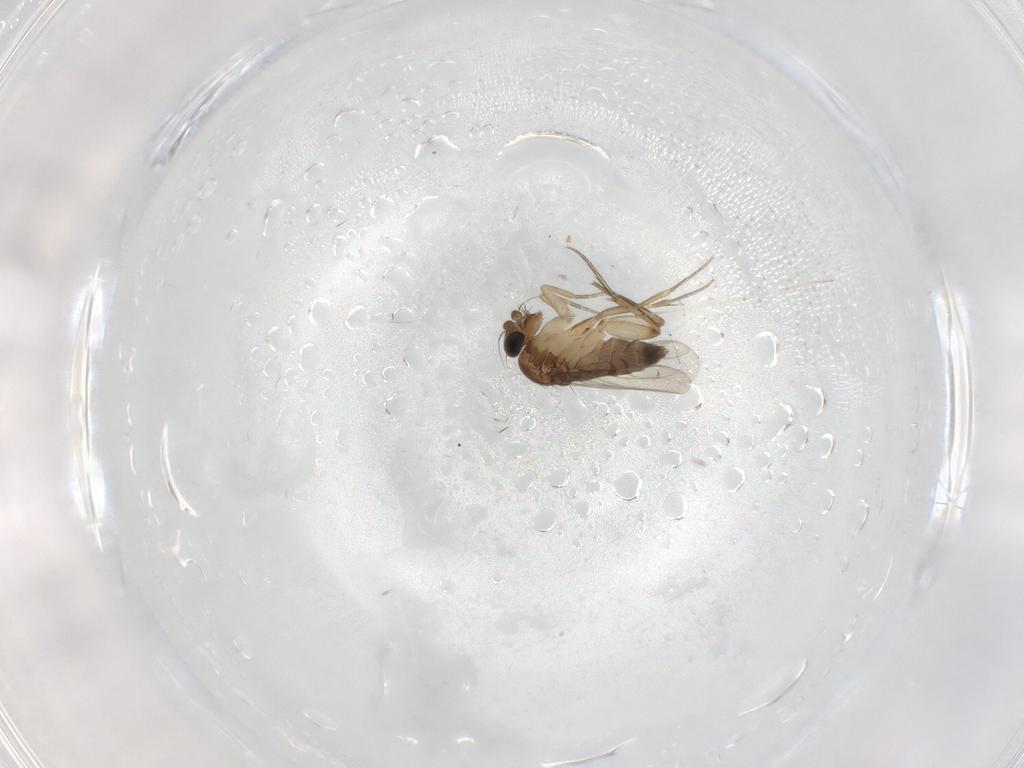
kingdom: Animalia
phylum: Arthropoda
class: Insecta
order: Diptera
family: Phoridae
